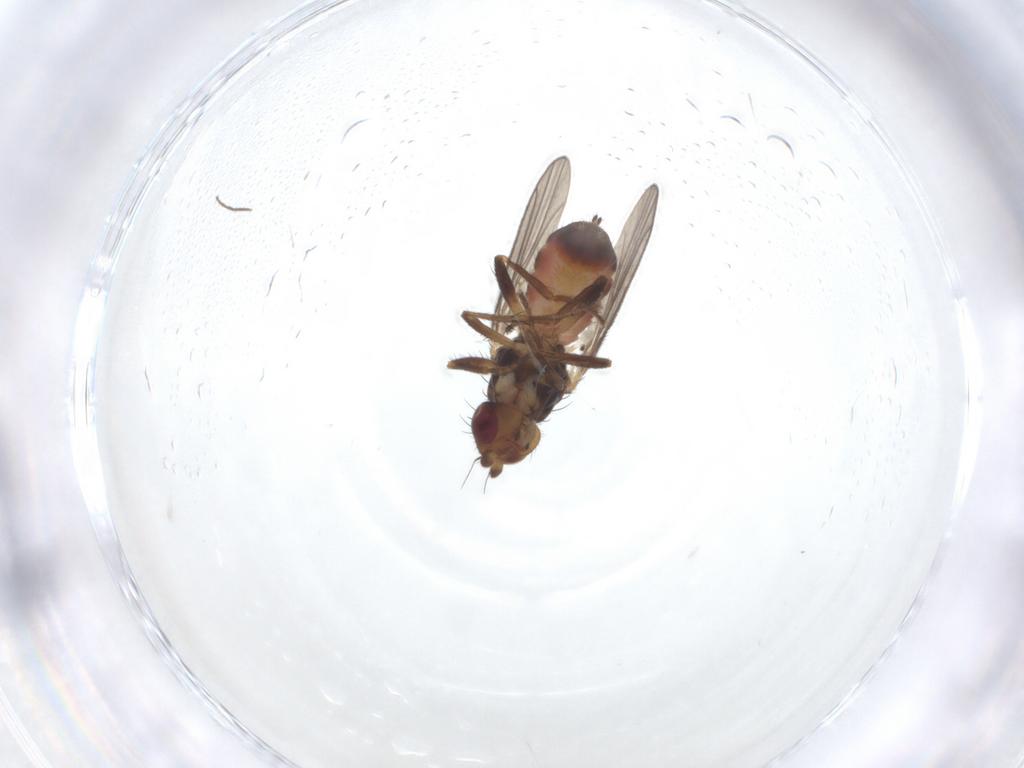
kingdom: Animalia
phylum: Arthropoda
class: Insecta
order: Diptera
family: Sphaeroceridae
